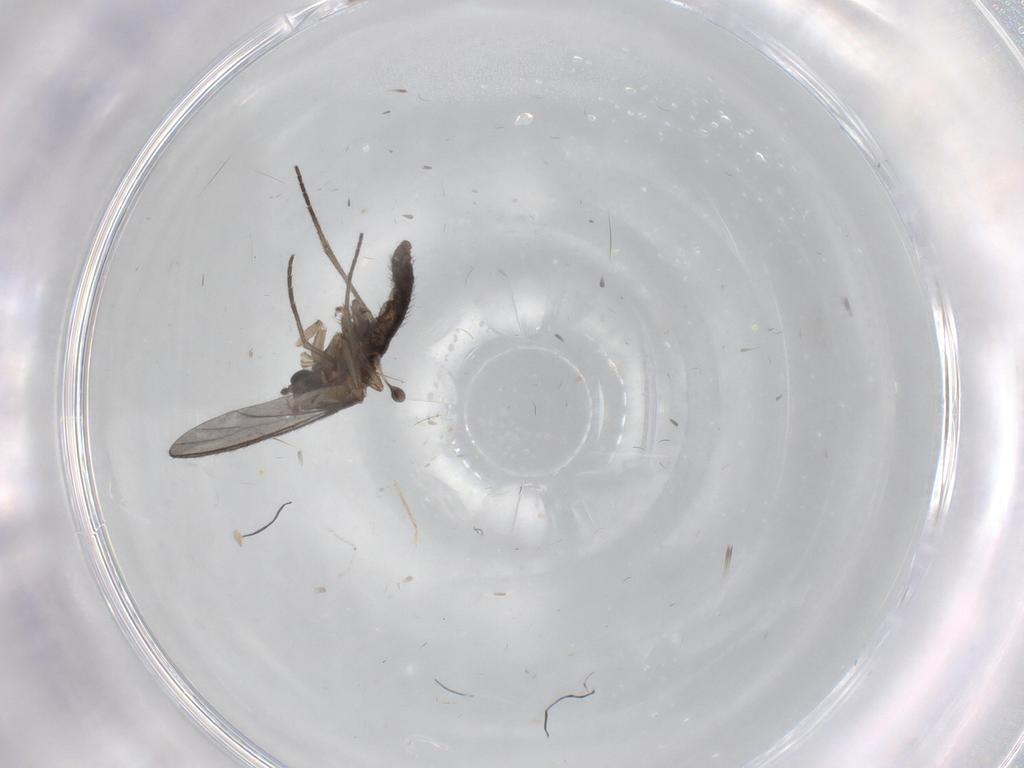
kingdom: Animalia
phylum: Arthropoda
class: Insecta
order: Diptera
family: Sciaridae
